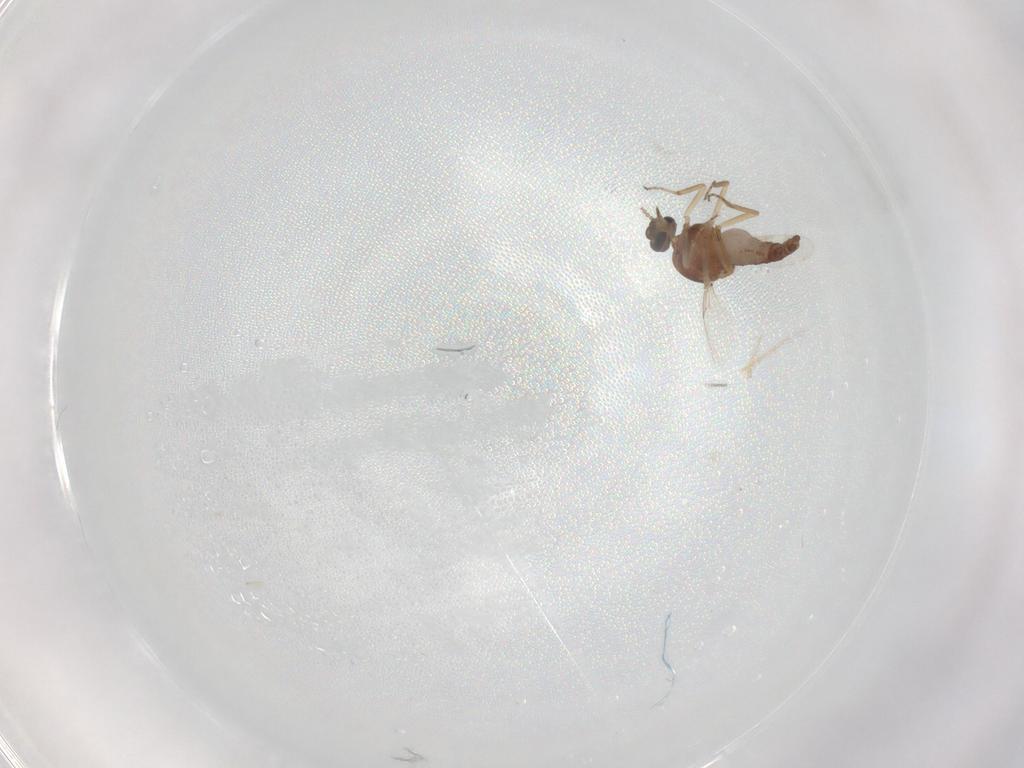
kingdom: Animalia
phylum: Arthropoda
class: Insecta
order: Diptera
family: Ceratopogonidae
